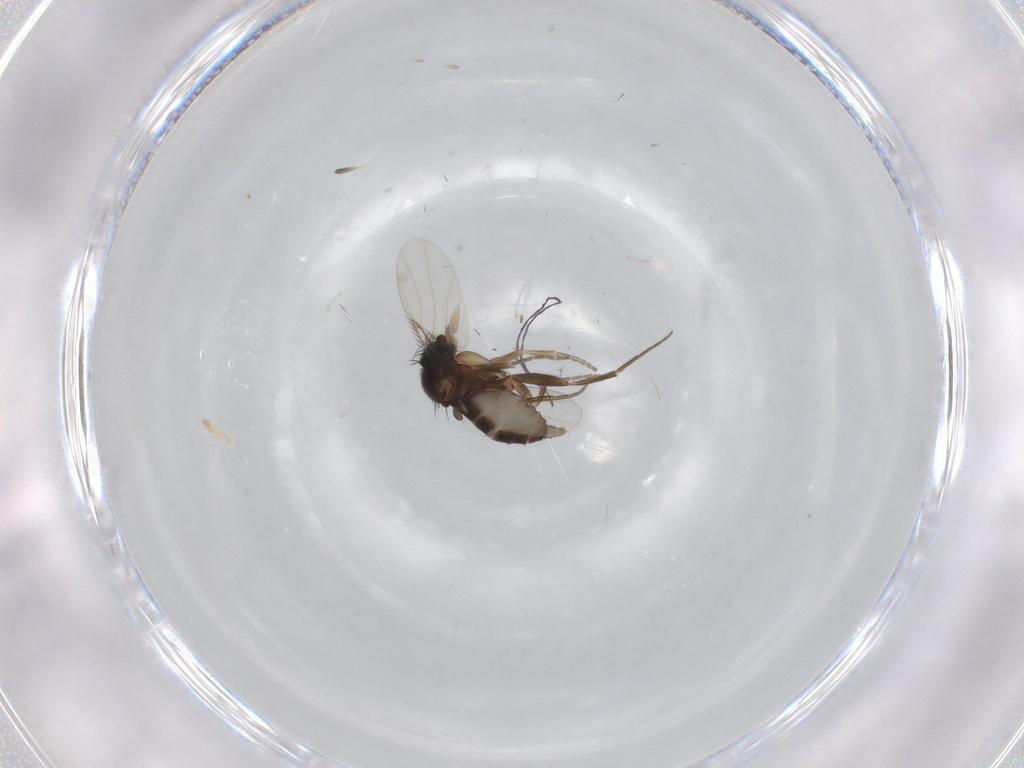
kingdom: Animalia
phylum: Arthropoda
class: Insecta
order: Diptera
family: Phoridae
